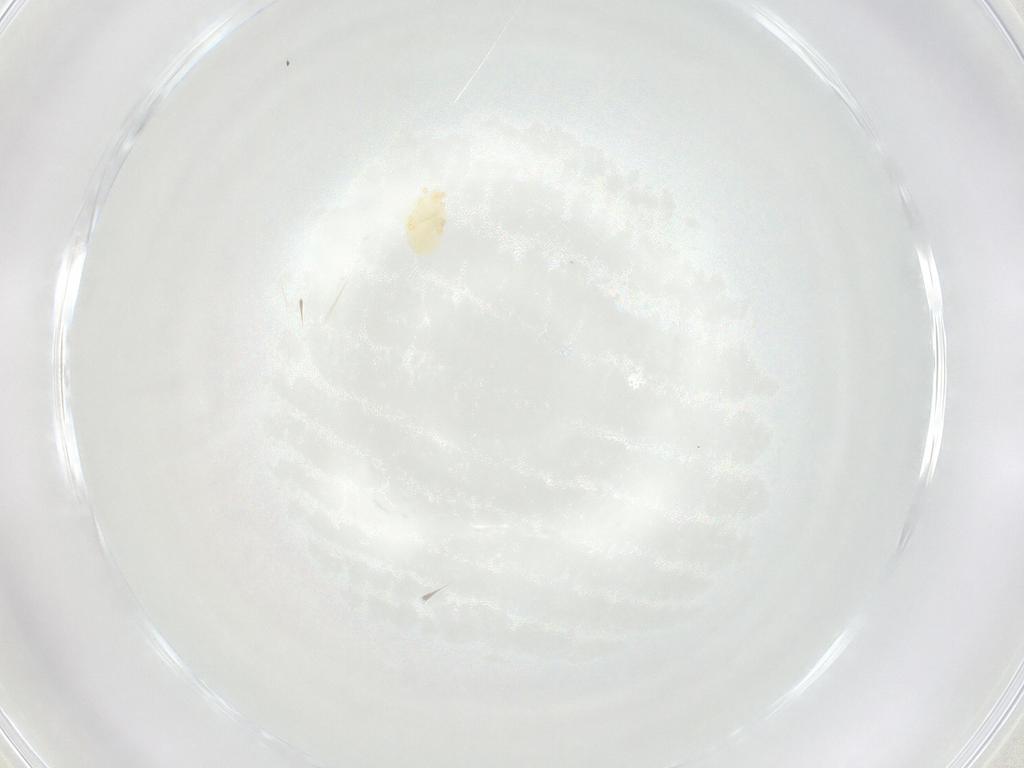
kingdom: Animalia
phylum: Arthropoda
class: Arachnida
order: Trombidiformes
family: Eupodidae
